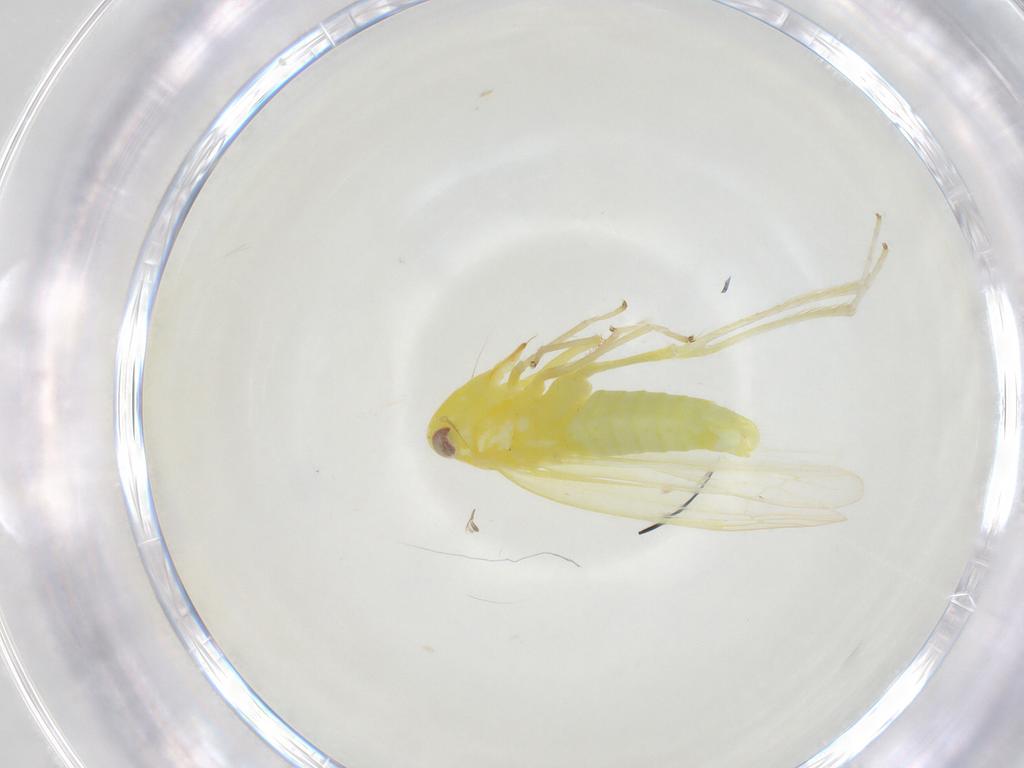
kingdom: Animalia
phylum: Arthropoda
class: Insecta
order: Hemiptera
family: Cicadellidae
